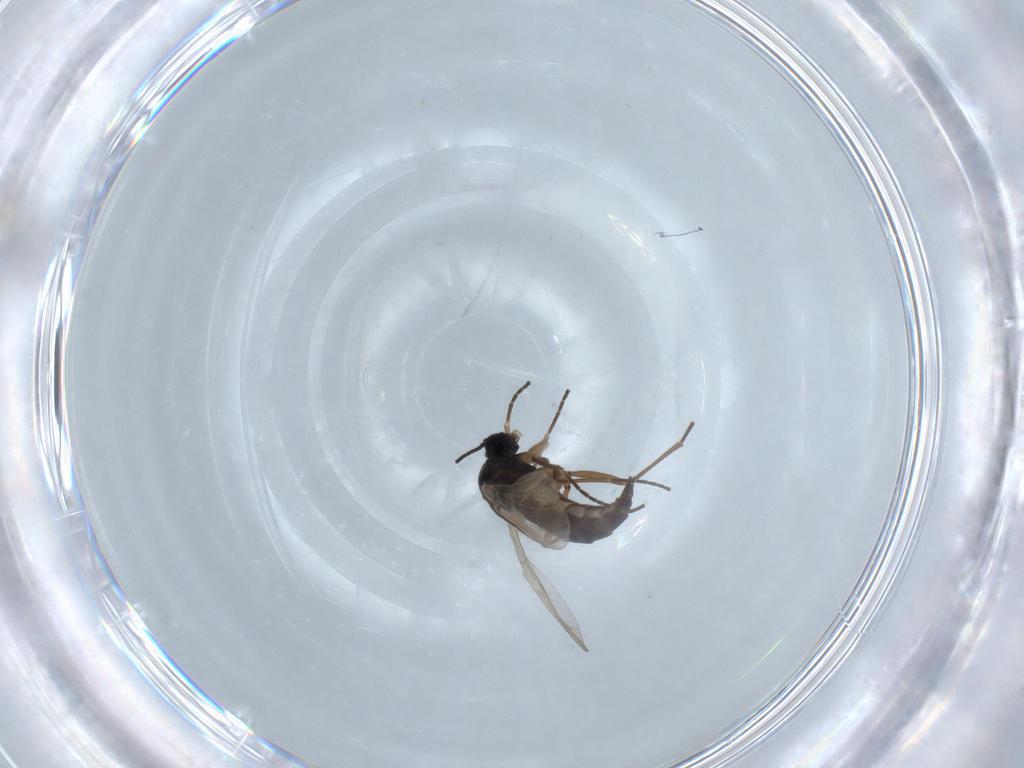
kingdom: Animalia
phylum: Arthropoda
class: Insecta
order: Diptera
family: Sciaridae
